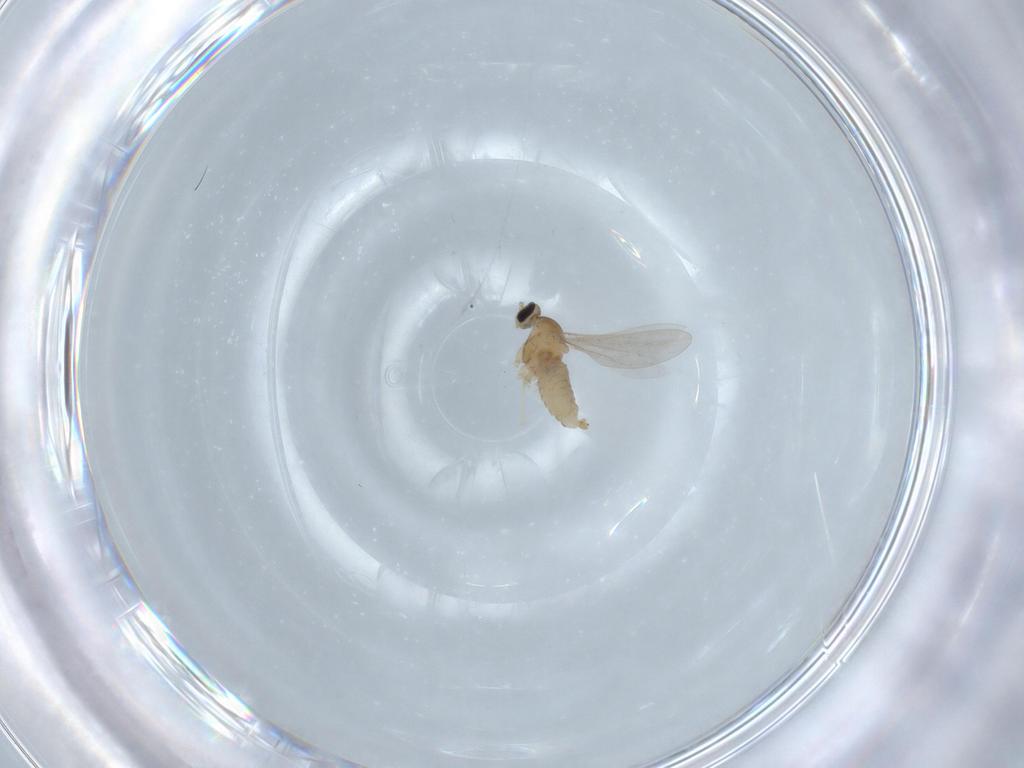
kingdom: Animalia
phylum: Arthropoda
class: Insecta
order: Diptera
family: Cecidomyiidae
